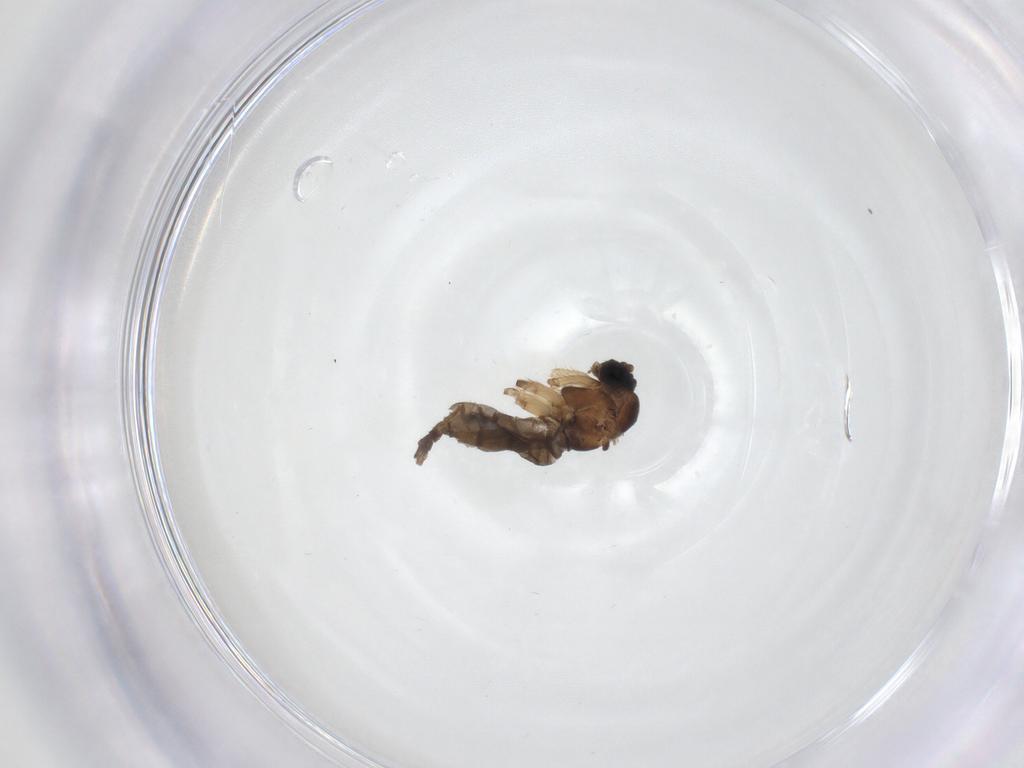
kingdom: Animalia
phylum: Arthropoda
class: Insecta
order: Diptera
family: Sciaridae
